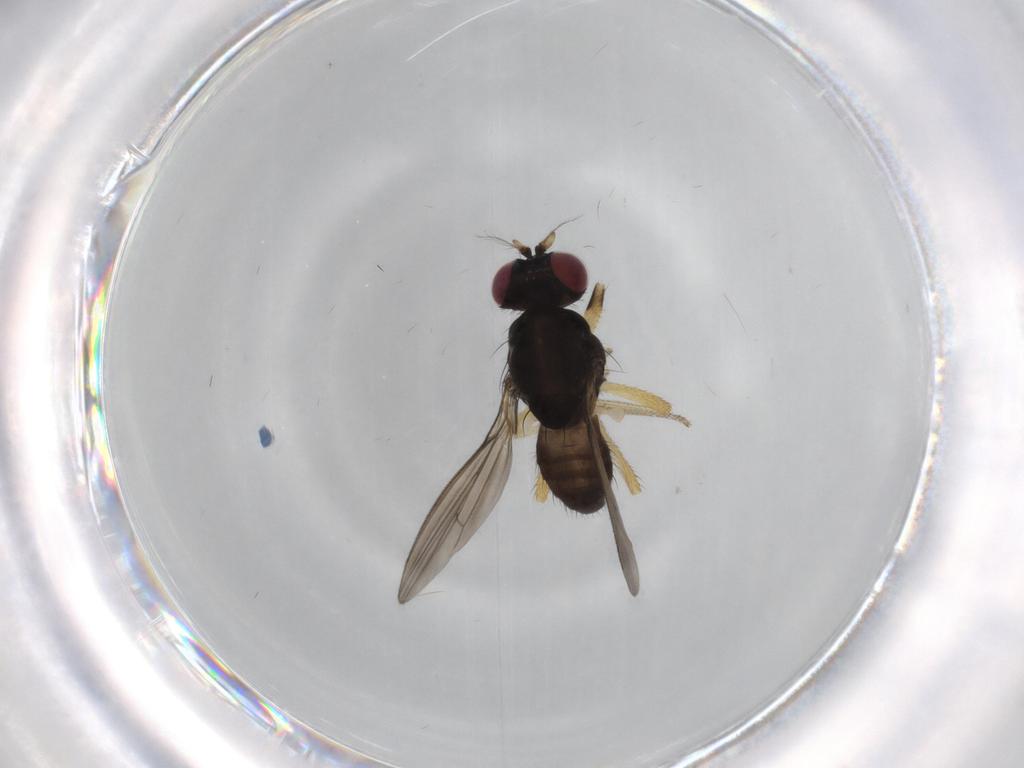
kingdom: Animalia
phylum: Arthropoda
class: Insecta
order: Diptera
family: Lauxaniidae
